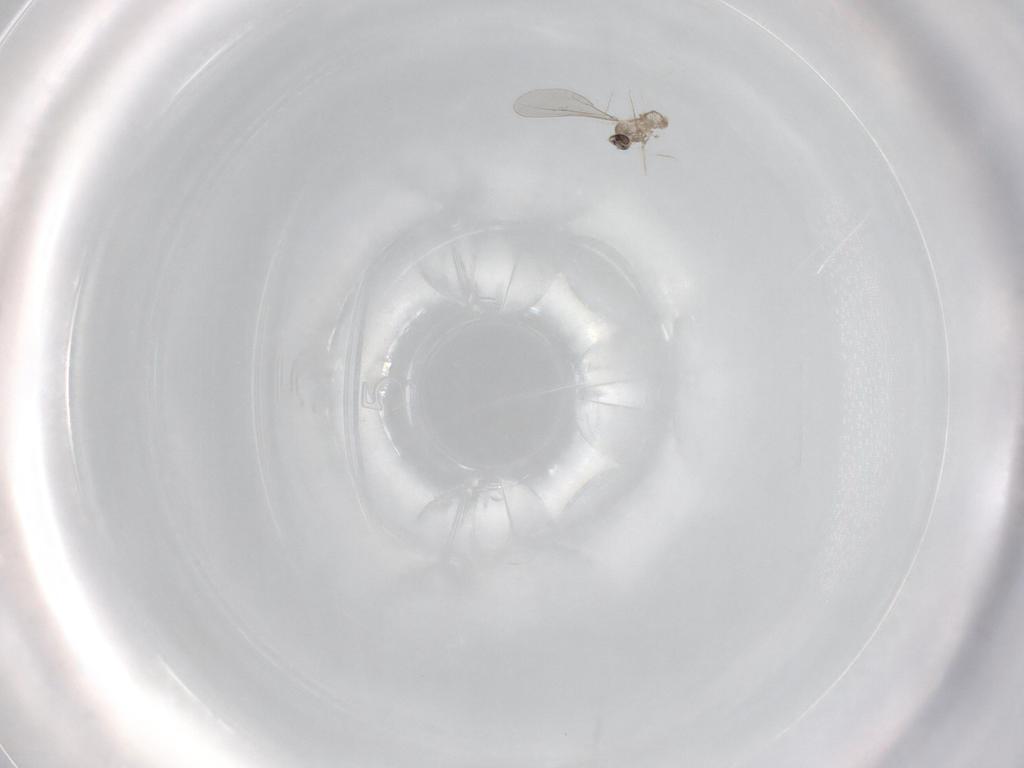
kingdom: Animalia
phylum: Arthropoda
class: Insecta
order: Diptera
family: Cecidomyiidae
